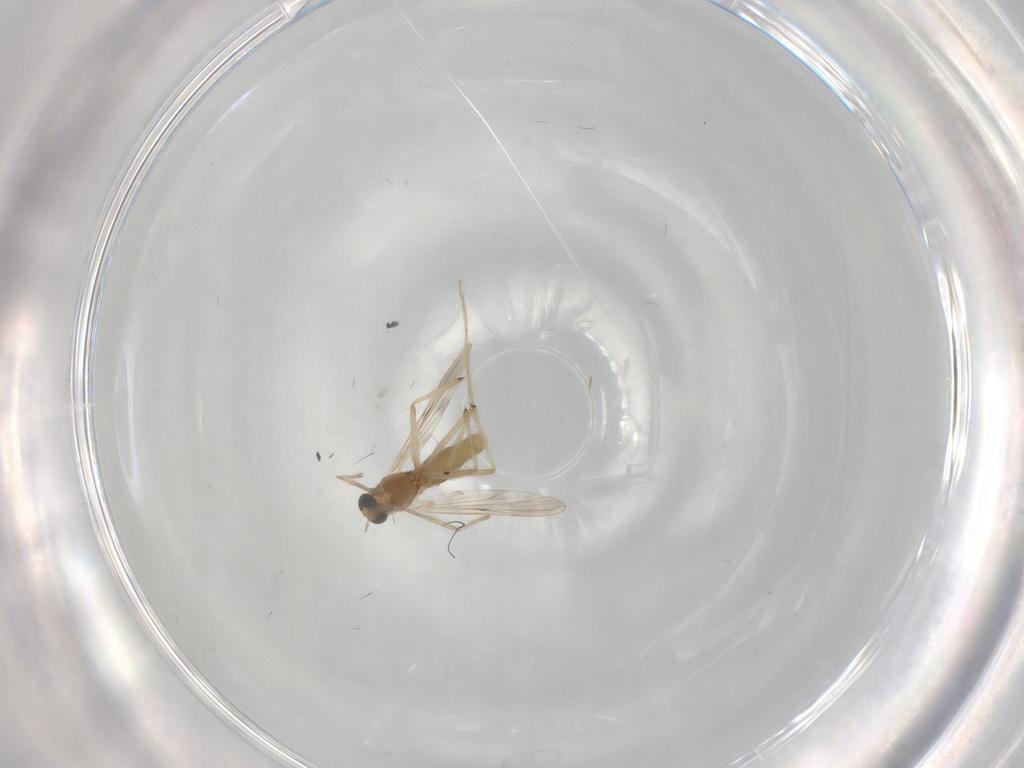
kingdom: Animalia
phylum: Arthropoda
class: Insecta
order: Diptera
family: Chironomidae
